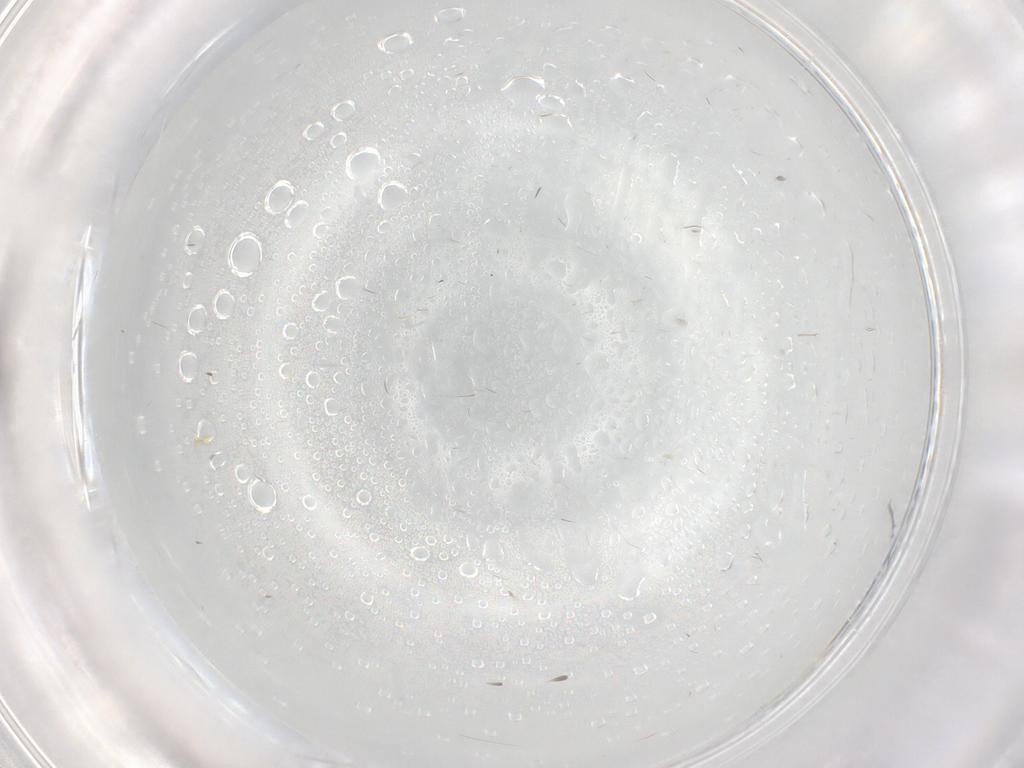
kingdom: Animalia
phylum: Arthropoda
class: Insecta
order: Diptera
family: Cecidomyiidae
